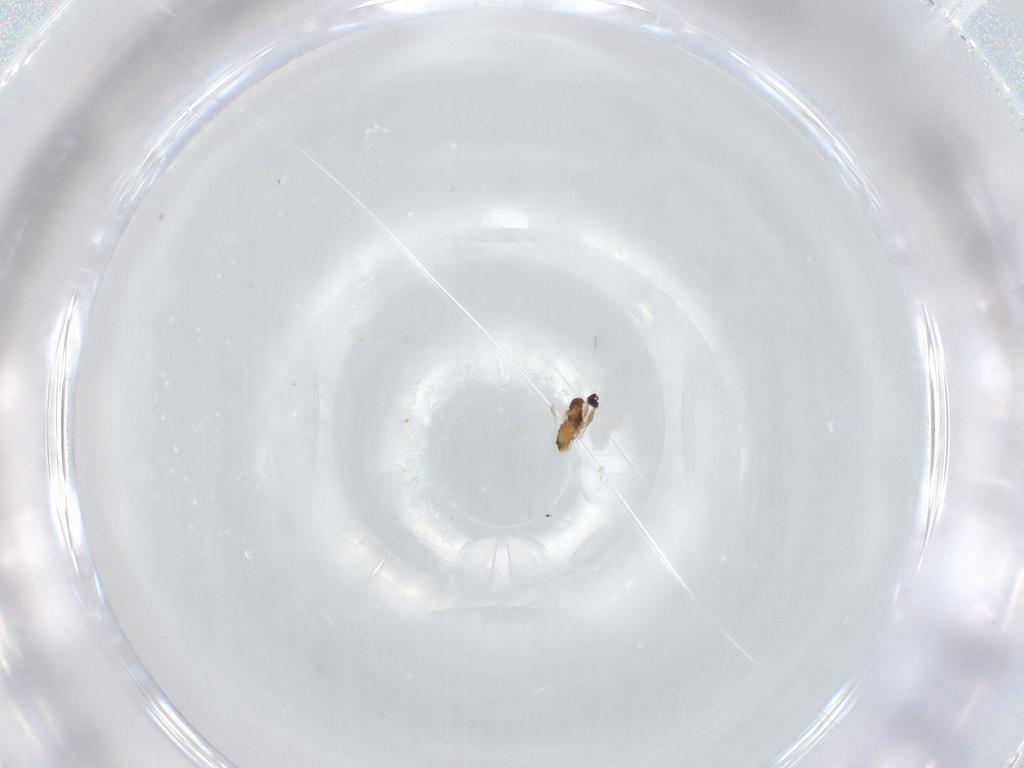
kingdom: Animalia
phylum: Arthropoda
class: Insecta
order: Diptera
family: Cecidomyiidae
